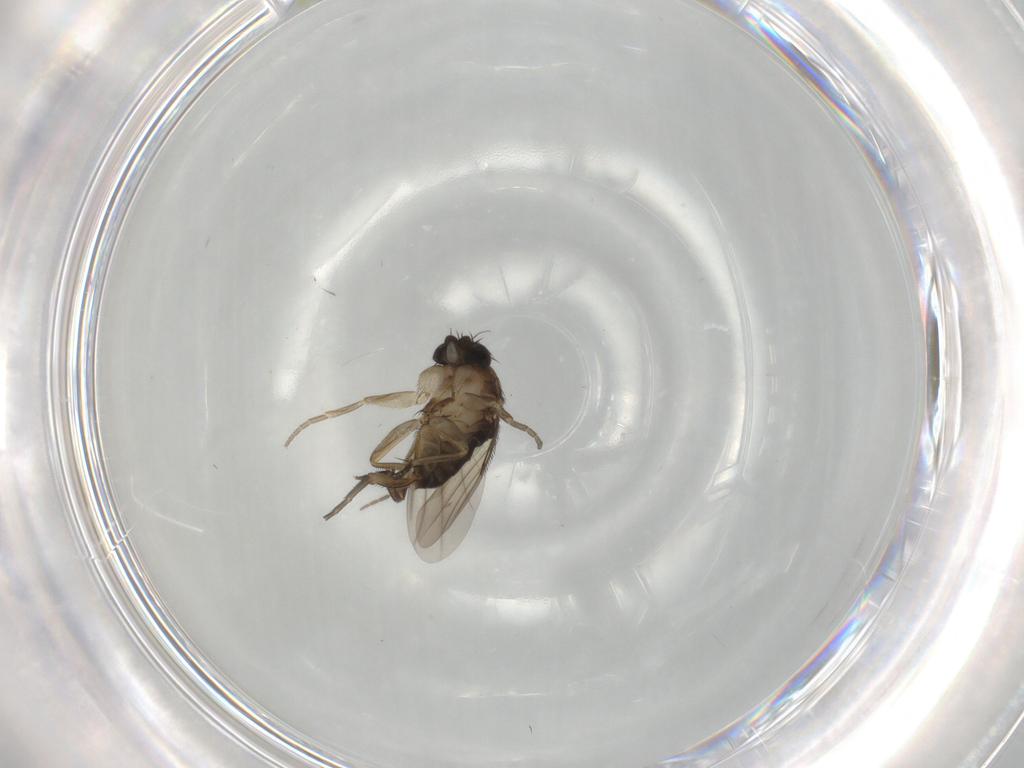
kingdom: Animalia
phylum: Arthropoda
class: Insecta
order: Diptera
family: Phoridae
